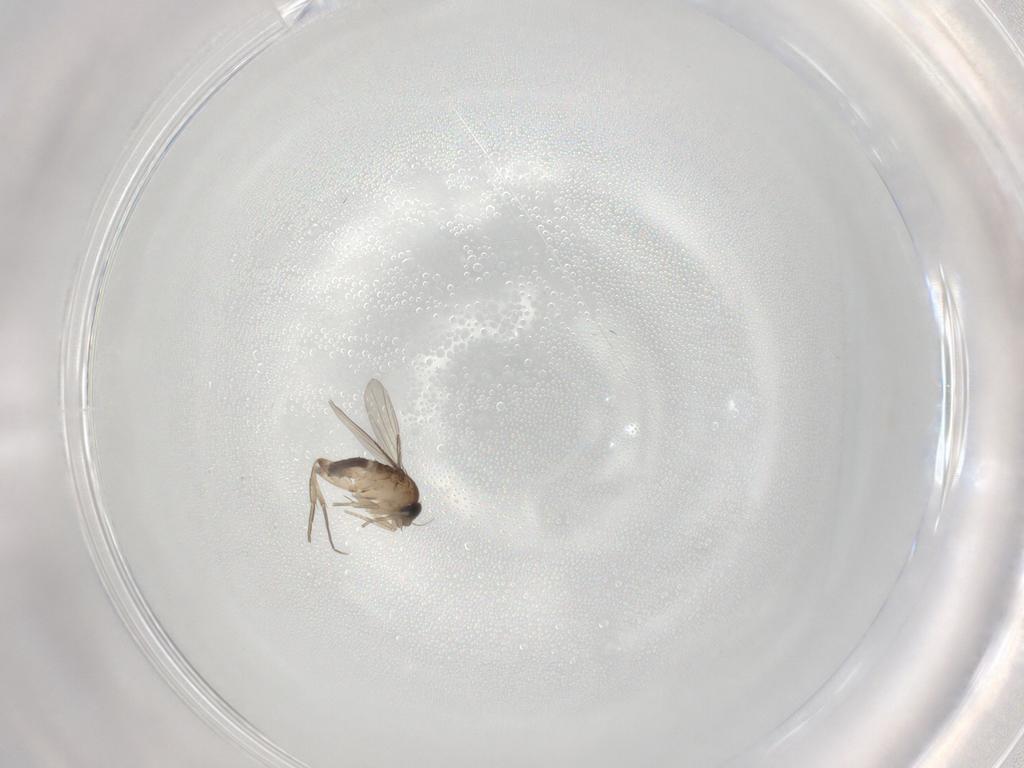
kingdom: Animalia
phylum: Arthropoda
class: Insecta
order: Diptera
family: Phoridae
